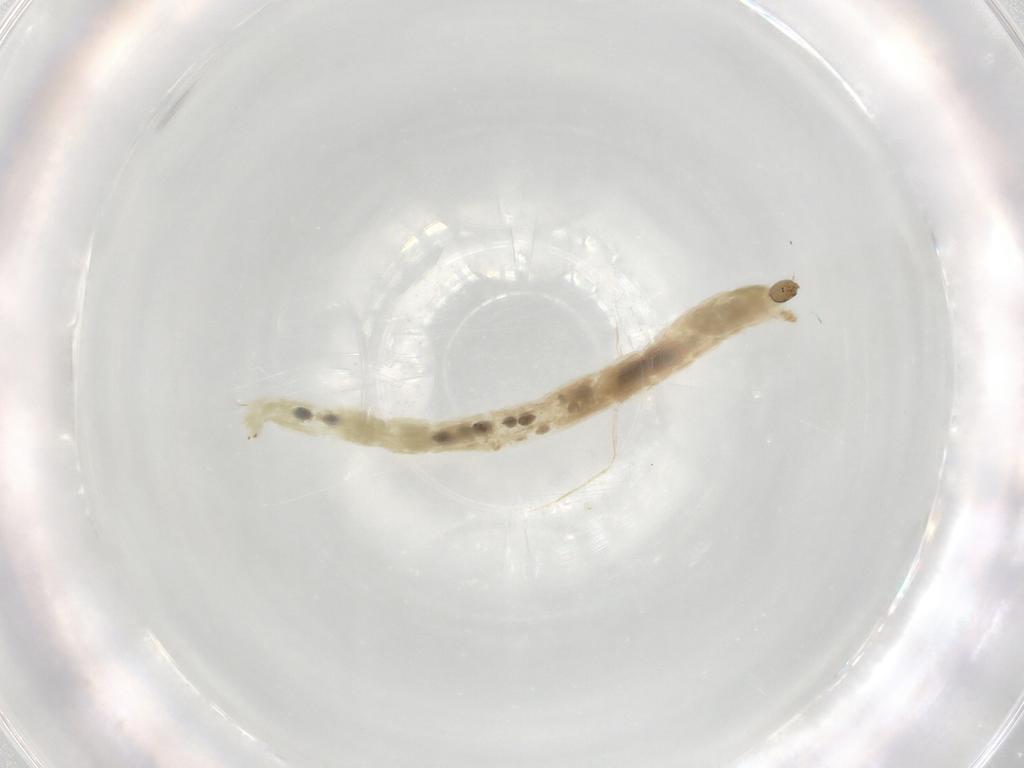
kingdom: Animalia
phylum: Arthropoda
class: Insecta
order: Diptera
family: Chironomidae
